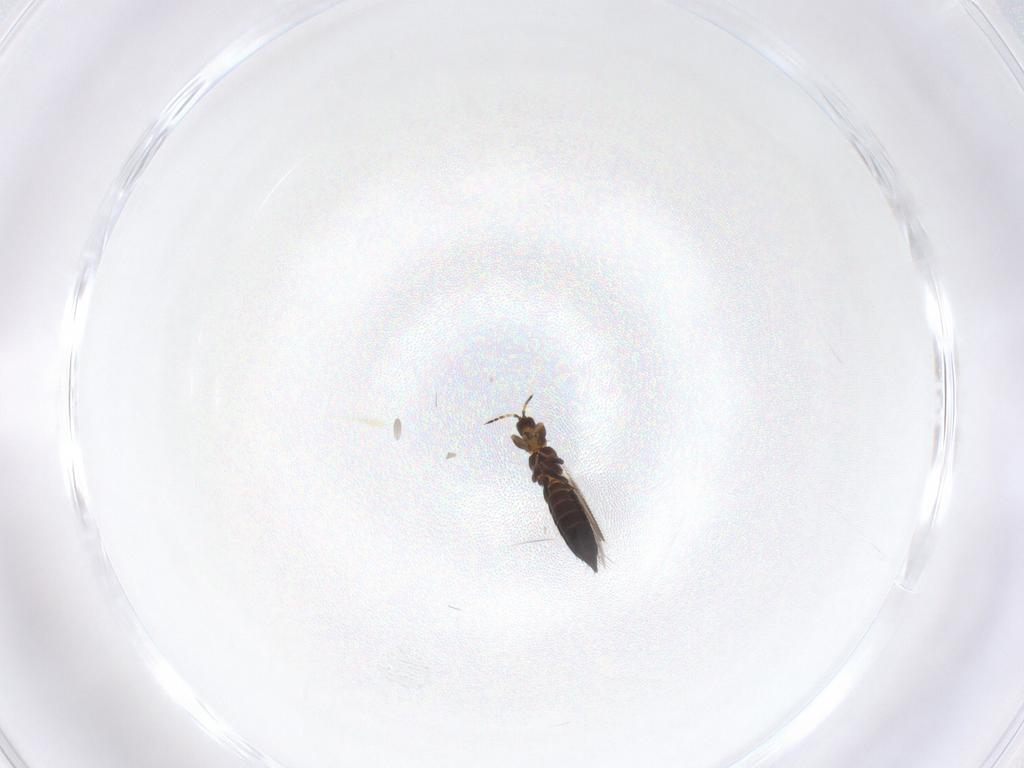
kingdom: Animalia
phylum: Arthropoda
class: Insecta
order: Thysanoptera
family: Thripidae
